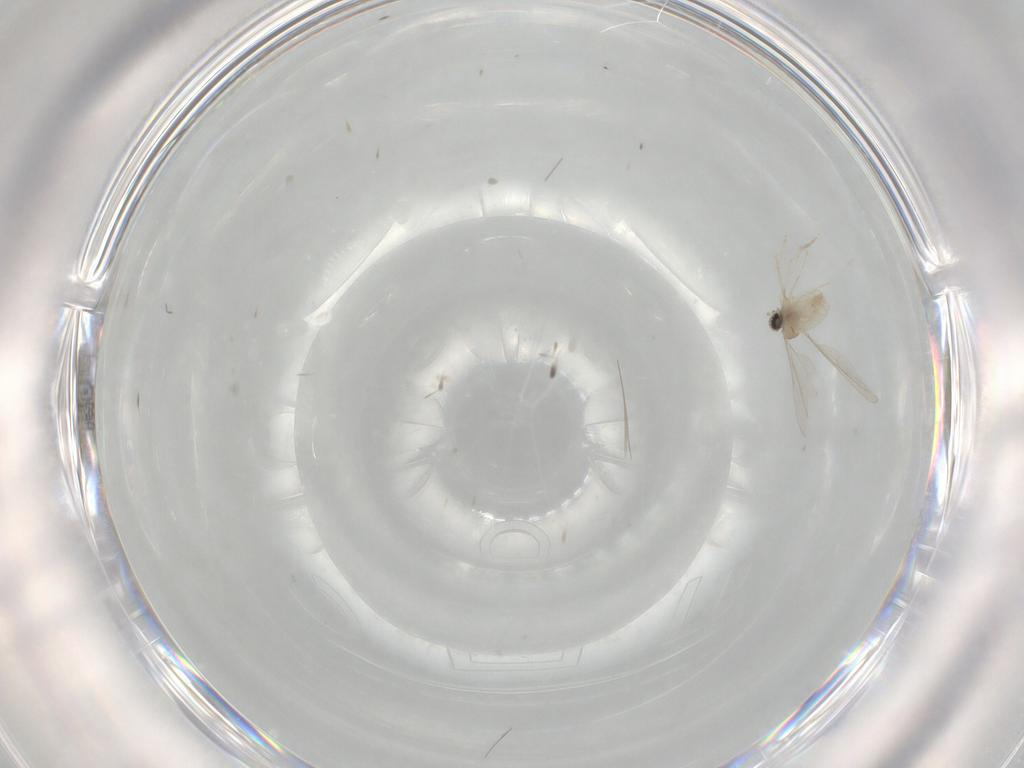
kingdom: Animalia
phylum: Arthropoda
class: Insecta
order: Diptera
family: Cecidomyiidae
